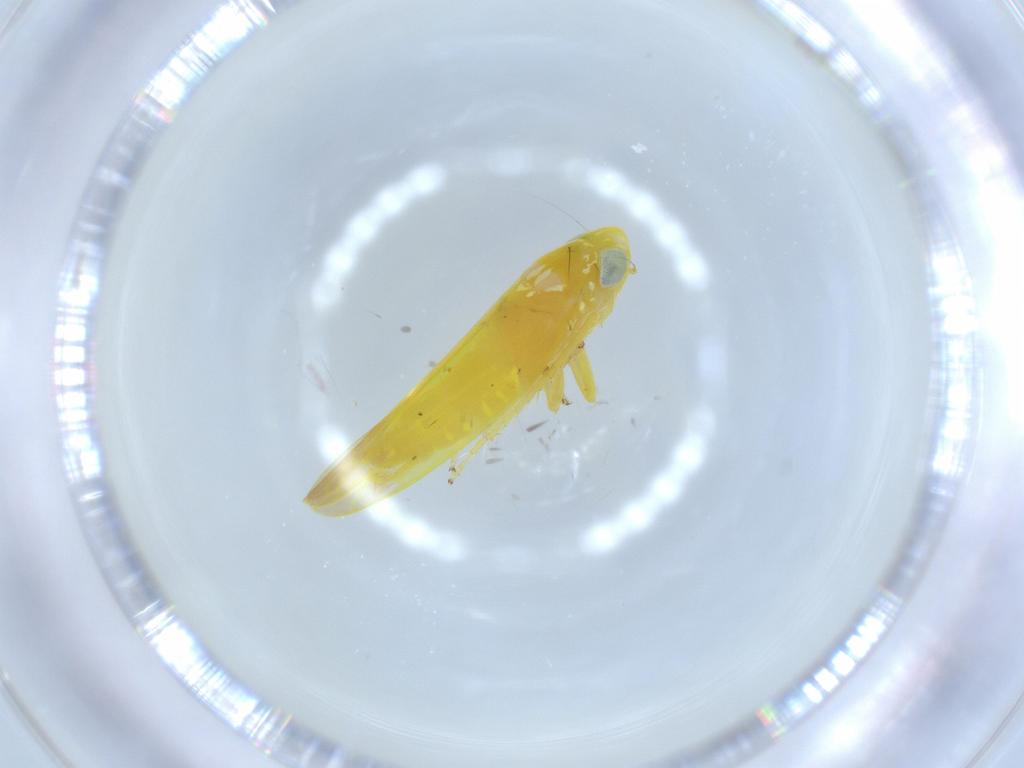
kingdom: Animalia
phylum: Arthropoda
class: Insecta
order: Hemiptera
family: Cicadellidae
